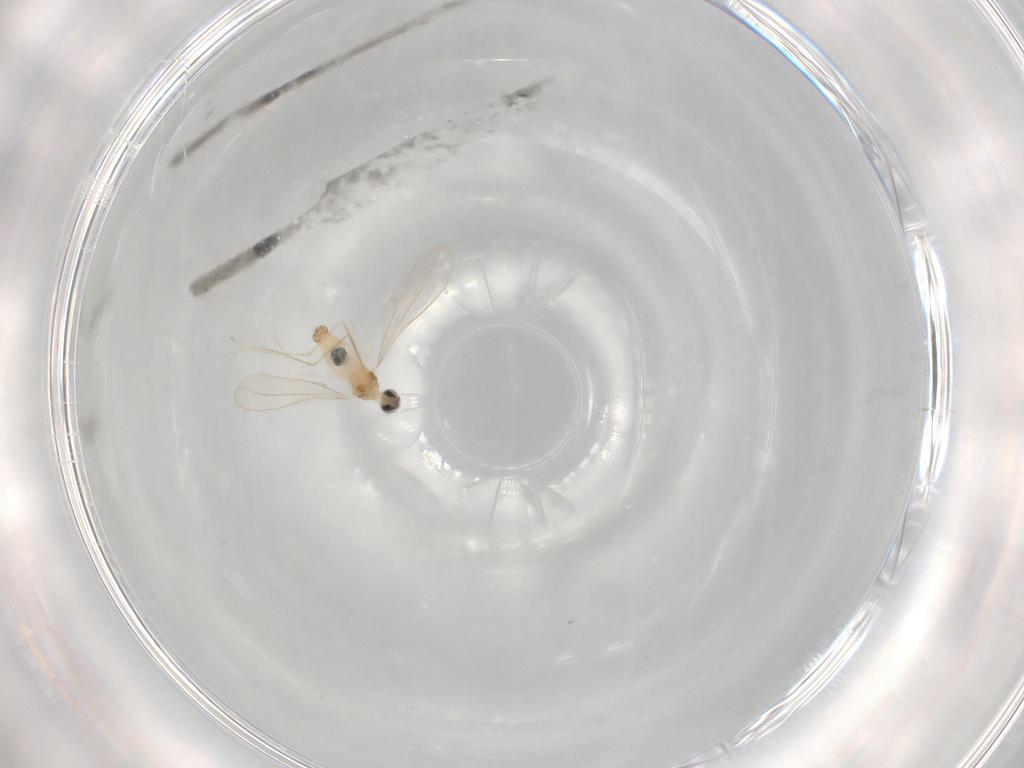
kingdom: Animalia
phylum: Arthropoda
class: Insecta
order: Diptera
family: Cecidomyiidae
